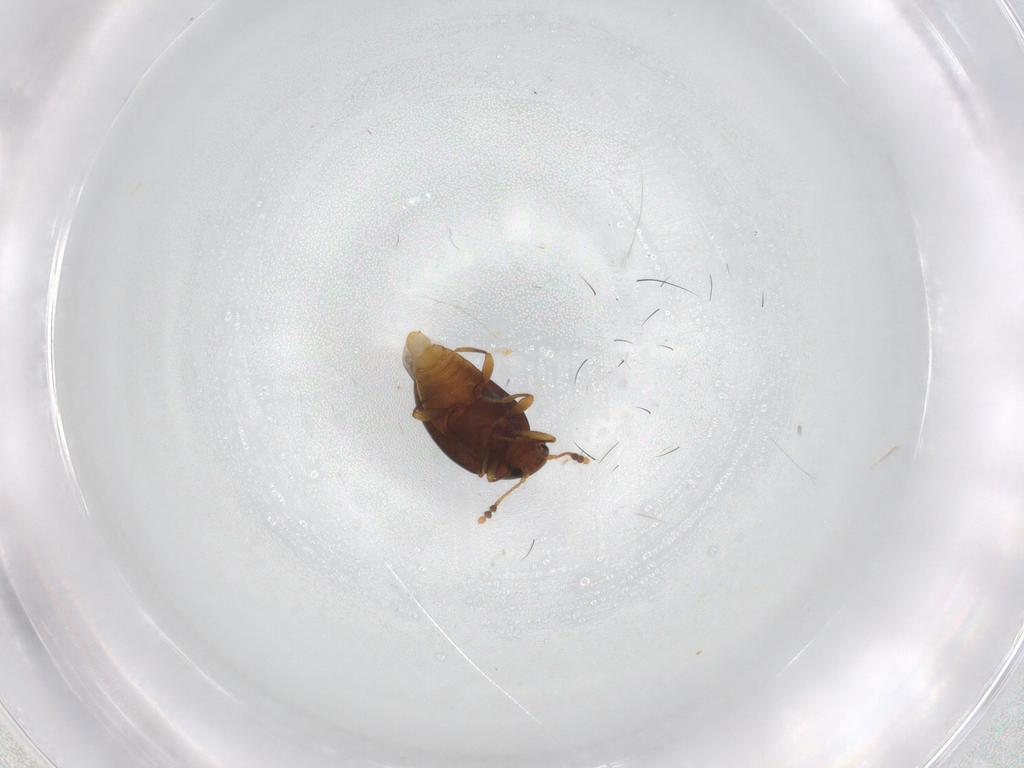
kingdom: Animalia
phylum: Arthropoda
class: Insecta
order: Coleoptera
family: Erotylidae
